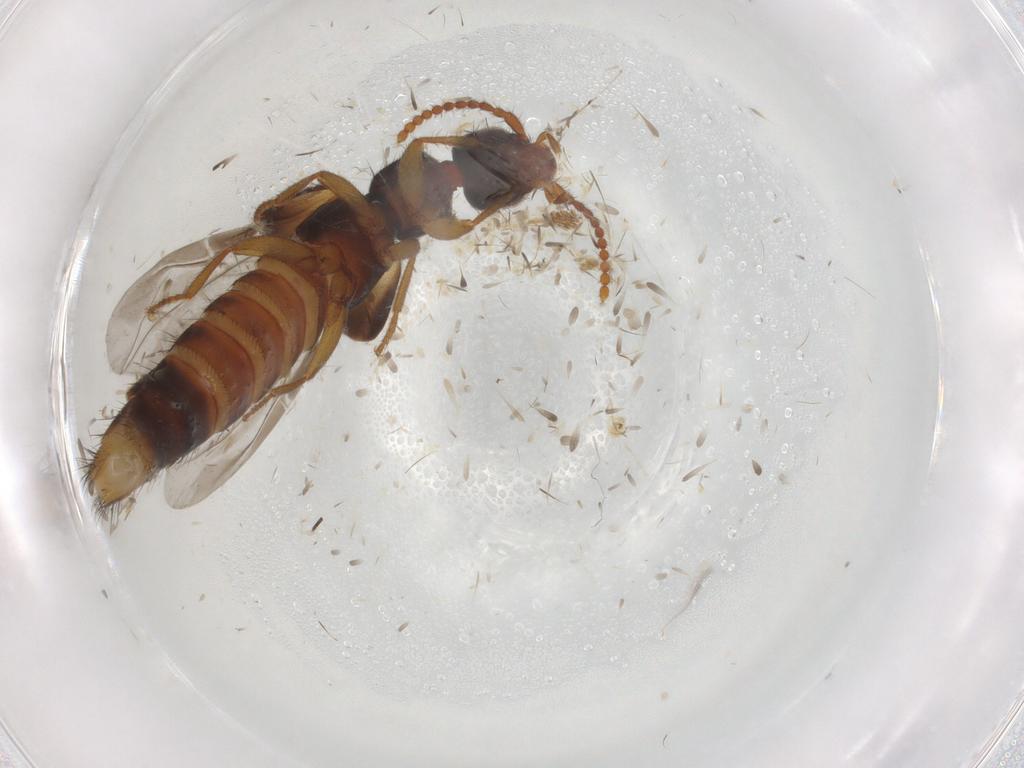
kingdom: Animalia
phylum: Arthropoda
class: Insecta
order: Coleoptera
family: Staphylinidae
